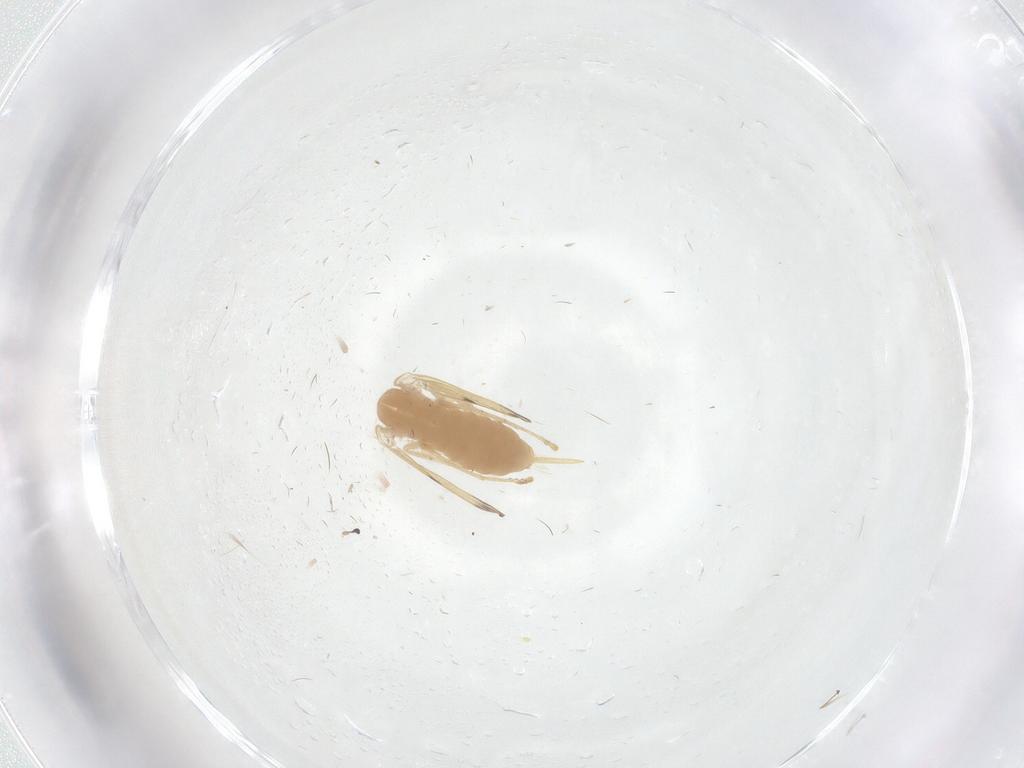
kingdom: Animalia
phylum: Arthropoda
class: Insecta
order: Diptera
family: Psychodidae
